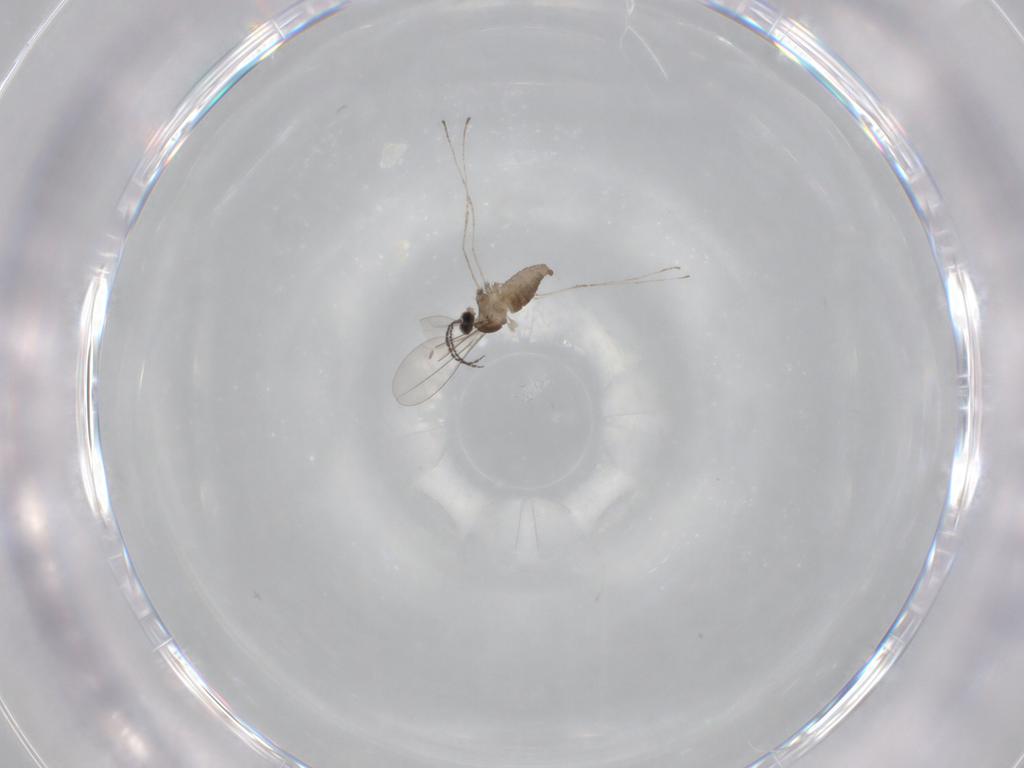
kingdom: Animalia
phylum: Arthropoda
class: Insecta
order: Diptera
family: Cecidomyiidae
